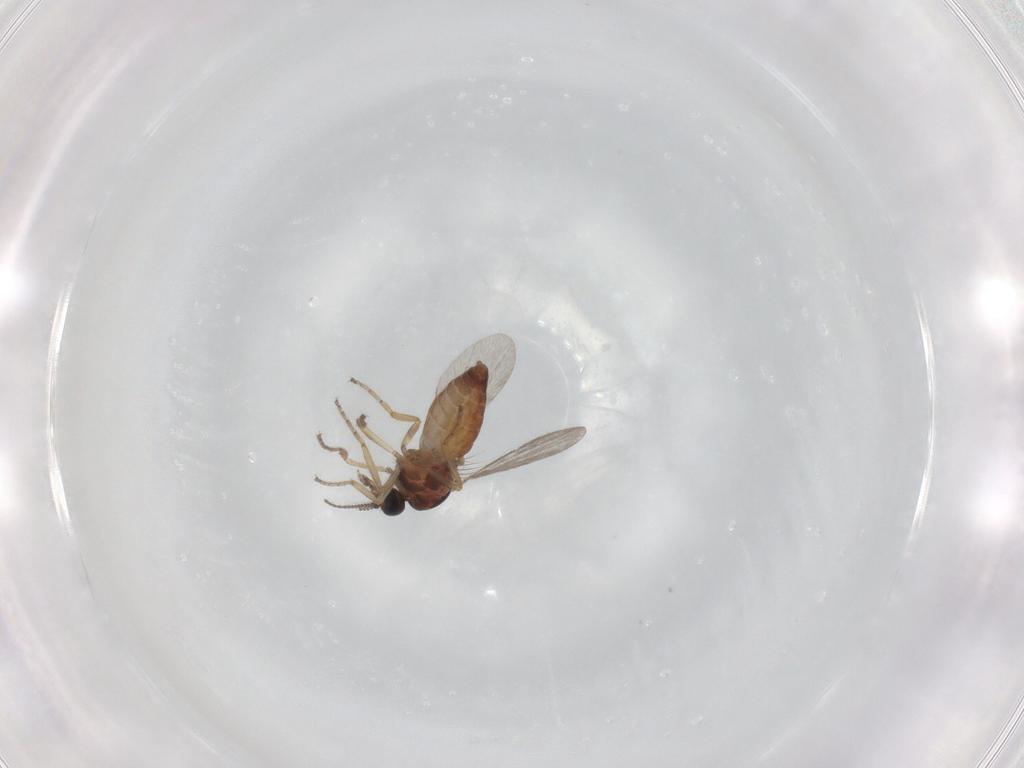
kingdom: Animalia
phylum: Arthropoda
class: Insecta
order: Diptera
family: Ceratopogonidae
